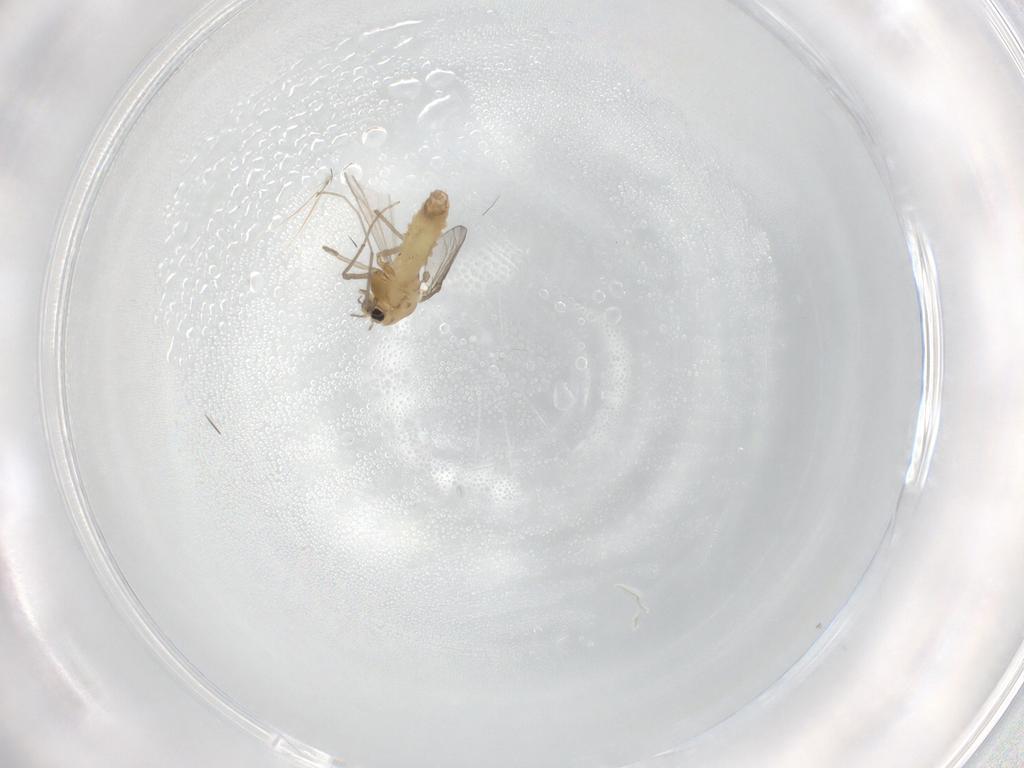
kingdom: Animalia
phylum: Arthropoda
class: Insecta
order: Diptera
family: Chironomidae
